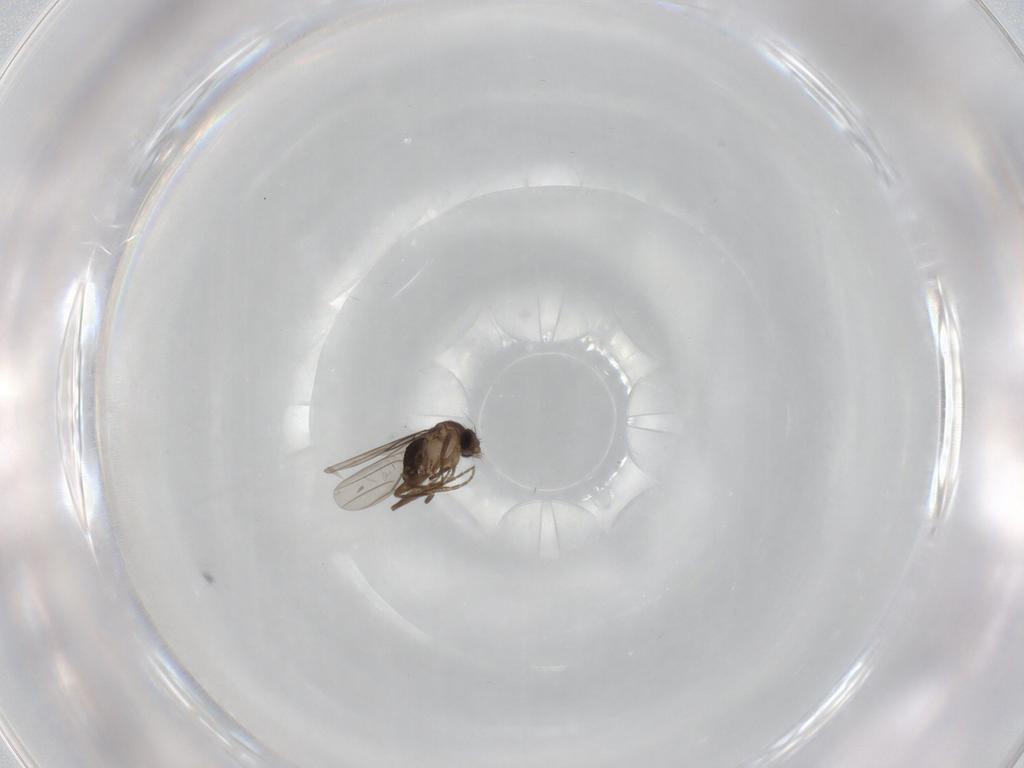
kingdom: Animalia
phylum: Arthropoda
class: Insecta
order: Diptera
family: Phoridae
